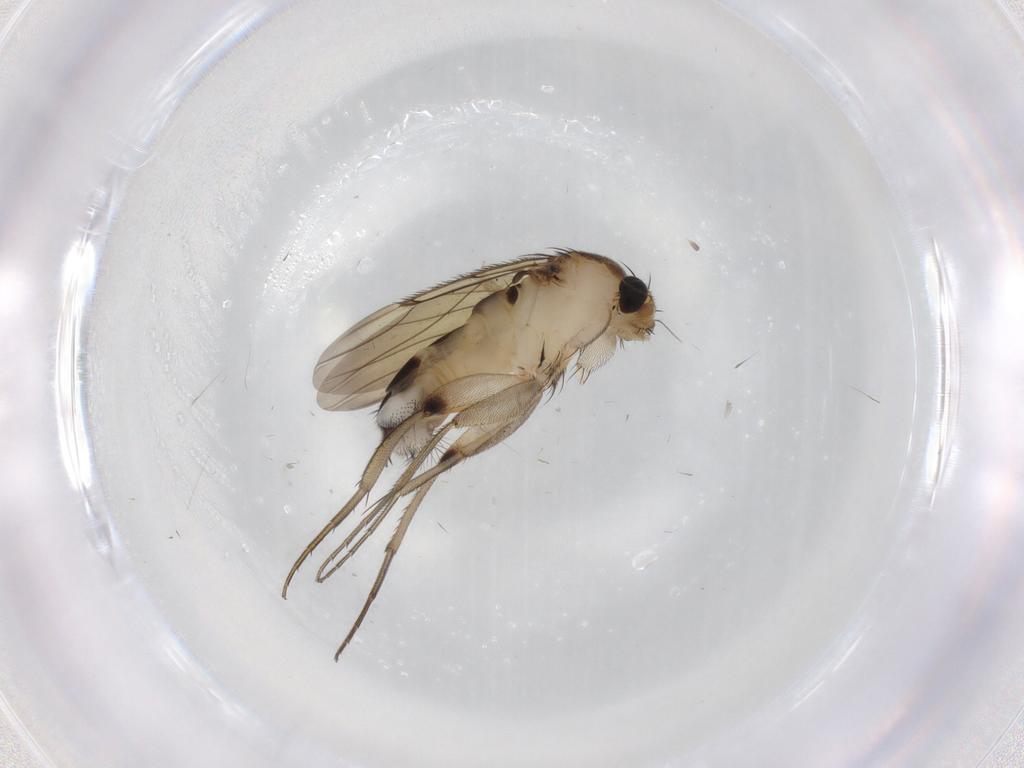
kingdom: Animalia
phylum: Arthropoda
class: Insecta
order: Diptera
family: Phoridae
